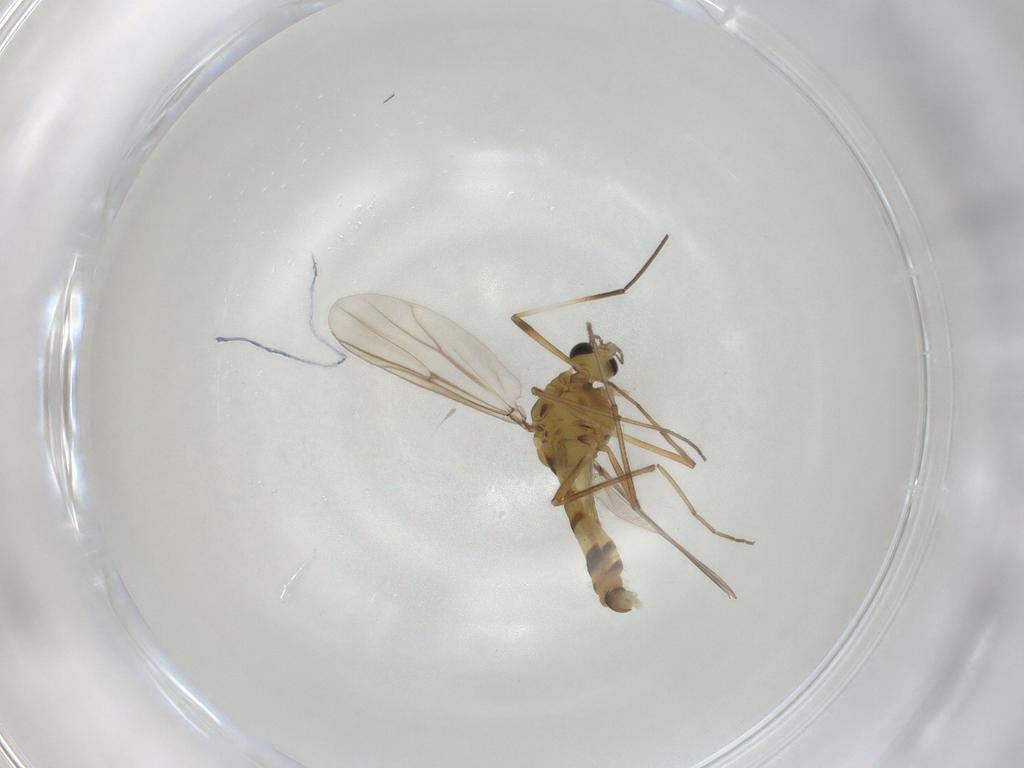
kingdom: Animalia
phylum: Arthropoda
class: Insecta
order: Diptera
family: Chironomidae
